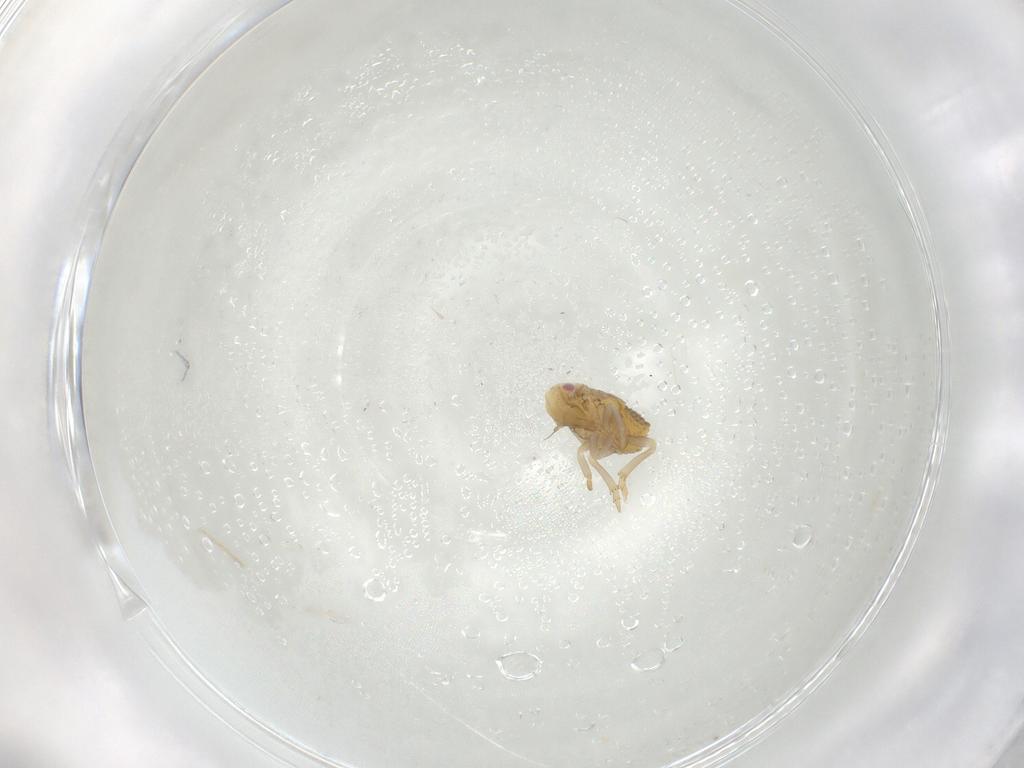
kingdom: Animalia
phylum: Arthropoda
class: Insecta
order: Hemiptera
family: Flatidae
